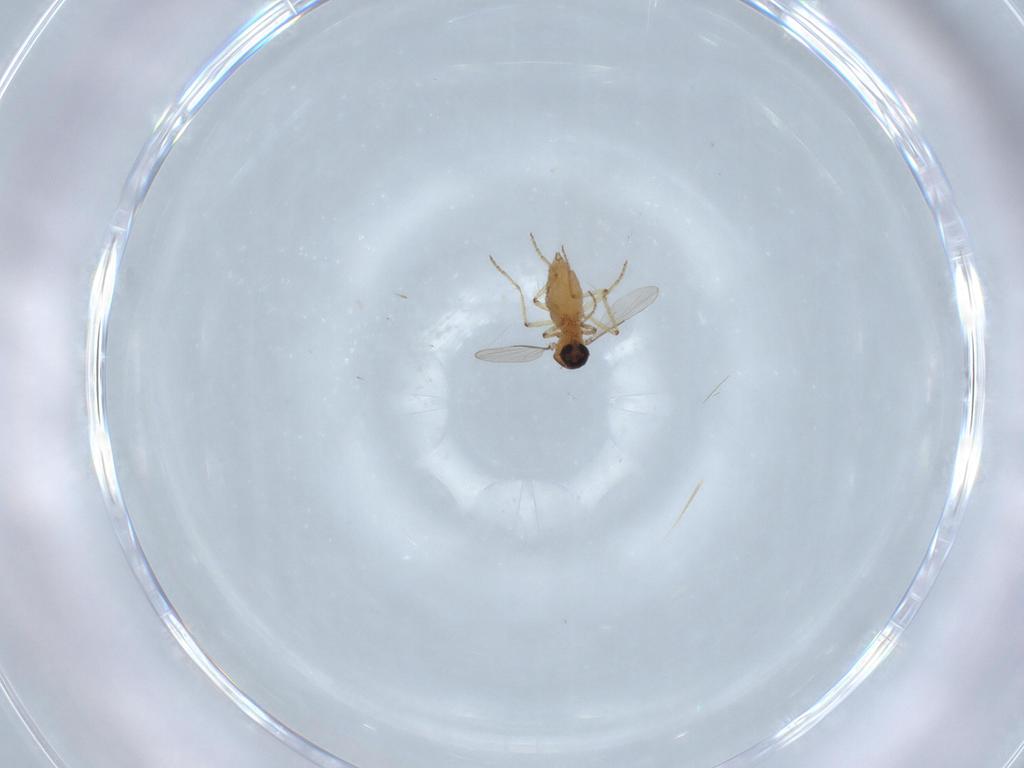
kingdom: Animalia
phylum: Arthropoda
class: Insecta
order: Diptera
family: Ceratopogonidae
